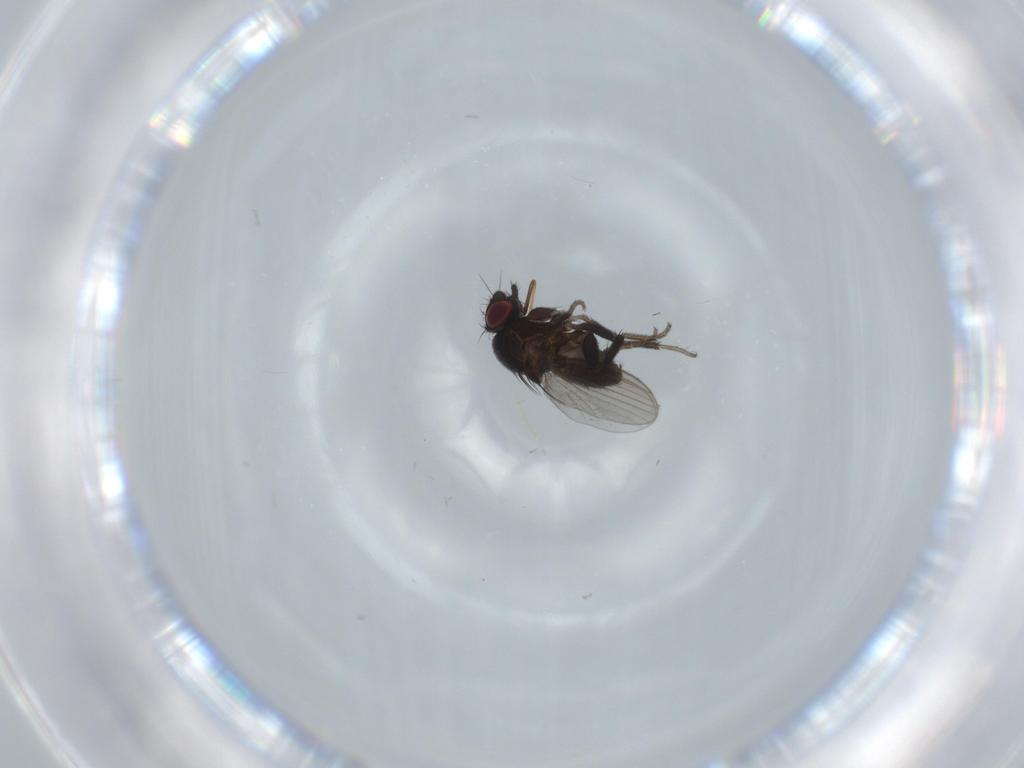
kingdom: Animalia
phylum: Arthropoda
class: Insecta
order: Diptera
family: Milichiidae
